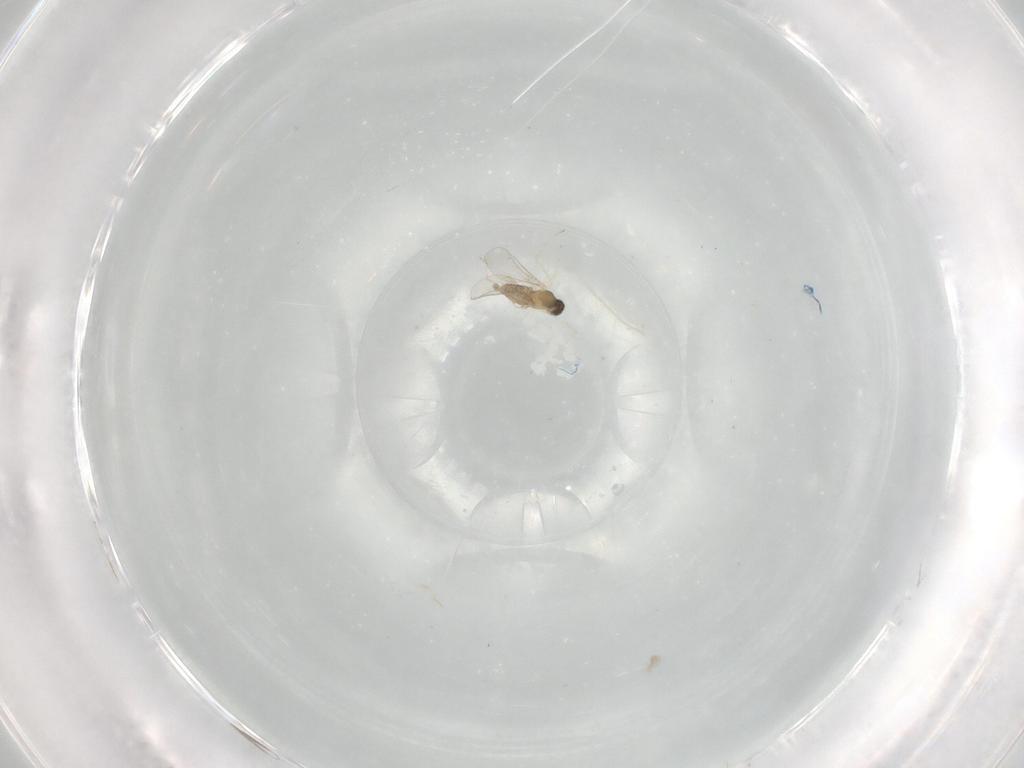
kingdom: Animalia
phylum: Arthropoda
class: Insecta
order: Diptera
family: Cecidomyiidae
